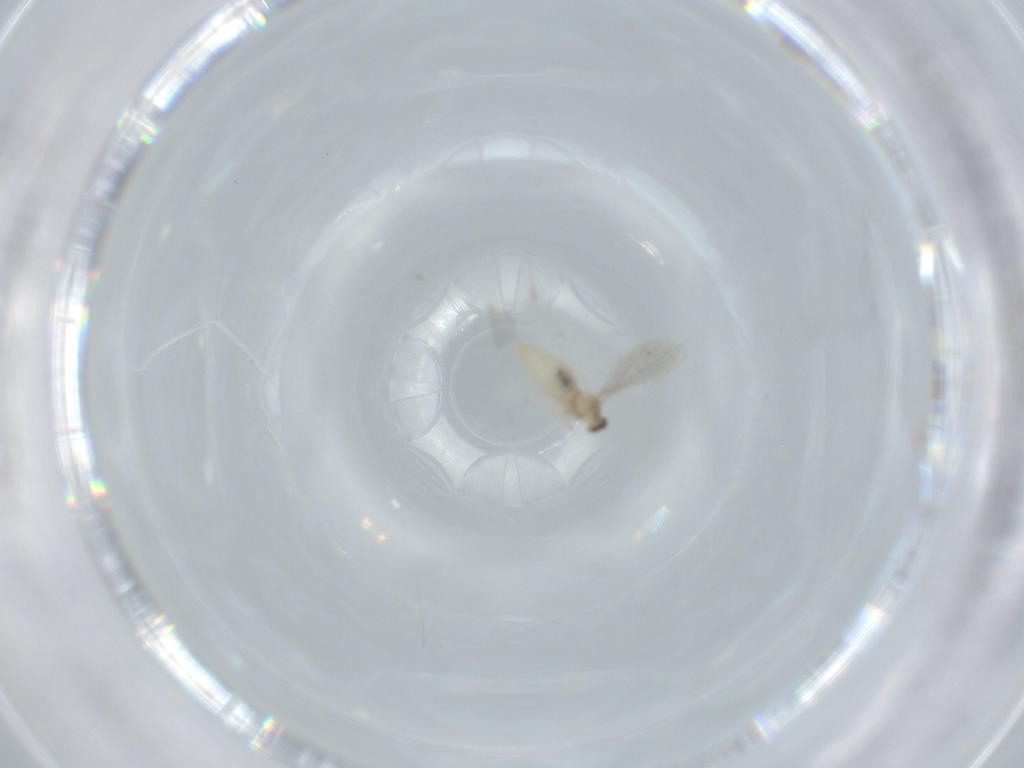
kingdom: Animalia
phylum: Arthropoda
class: Insecta
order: Diptera
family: Cecidomyiidae
